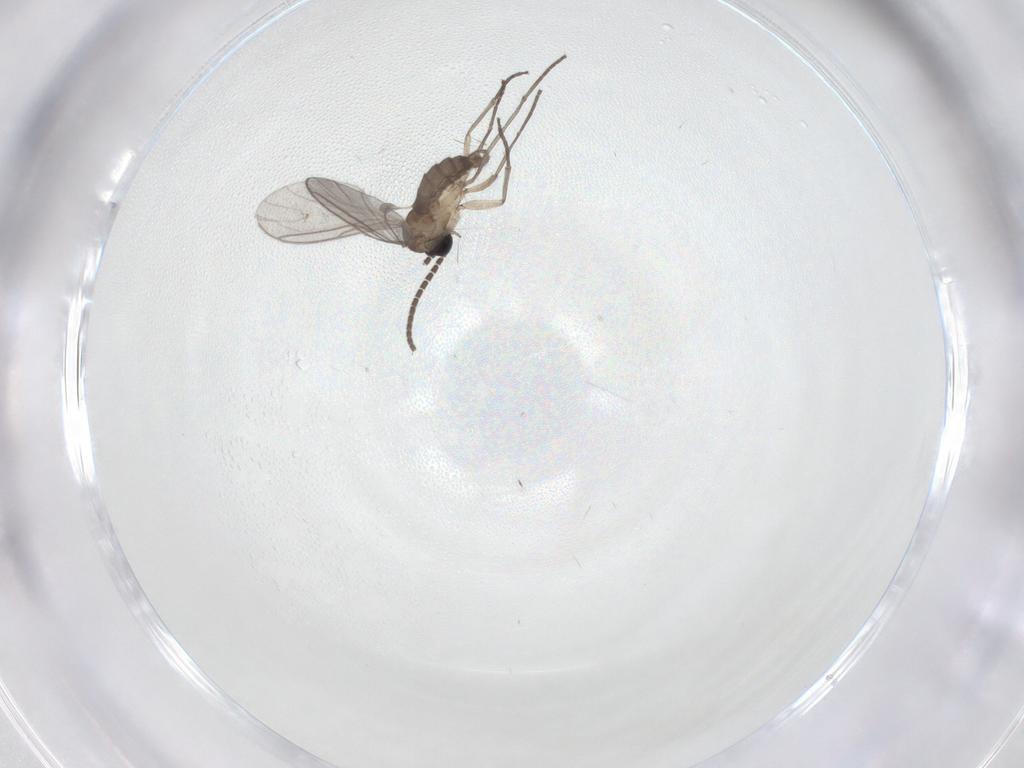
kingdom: Animalia
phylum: Arthropoda
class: Insecta
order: Diptera
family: Sciaridae
